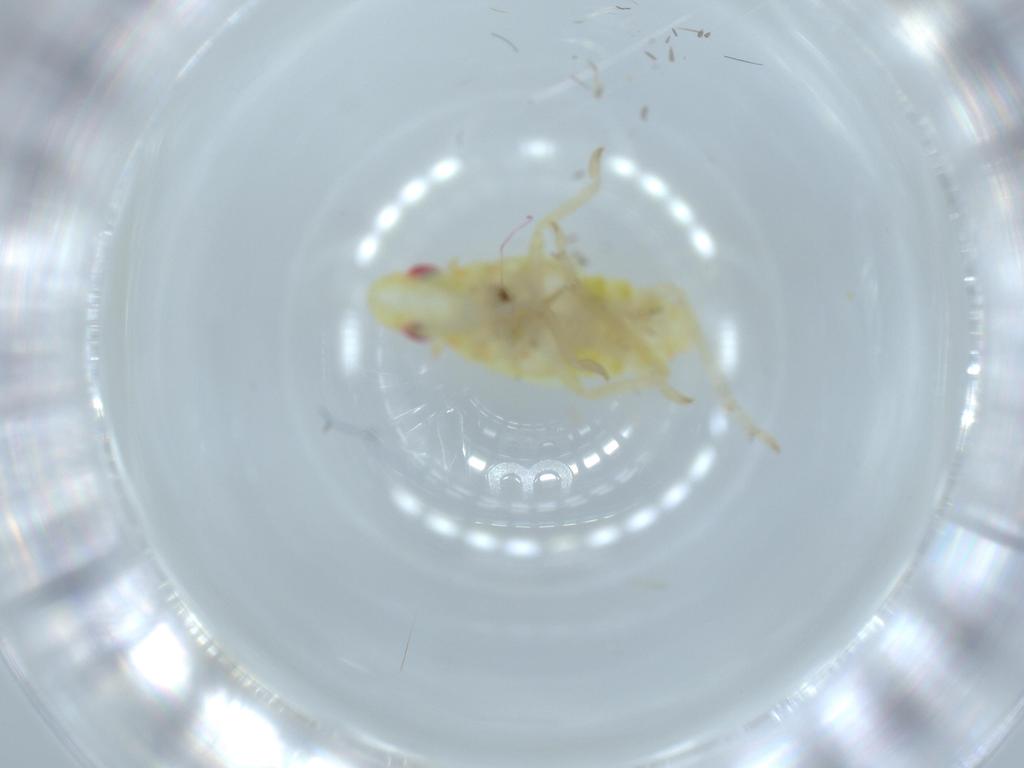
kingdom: Animalia
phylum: Arthropoda
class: Insecta
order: Hemiptera
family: Tropiduchidae
